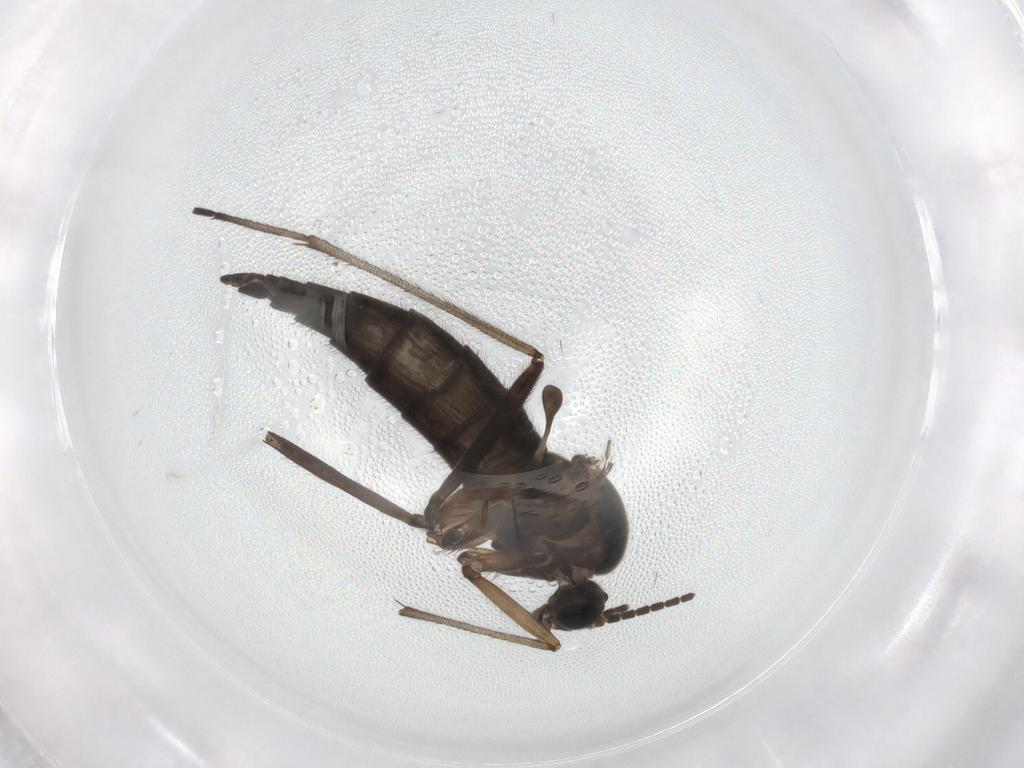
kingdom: Animalia
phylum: Arthropoda
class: Insecta
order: Diptera
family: Sciaridae
